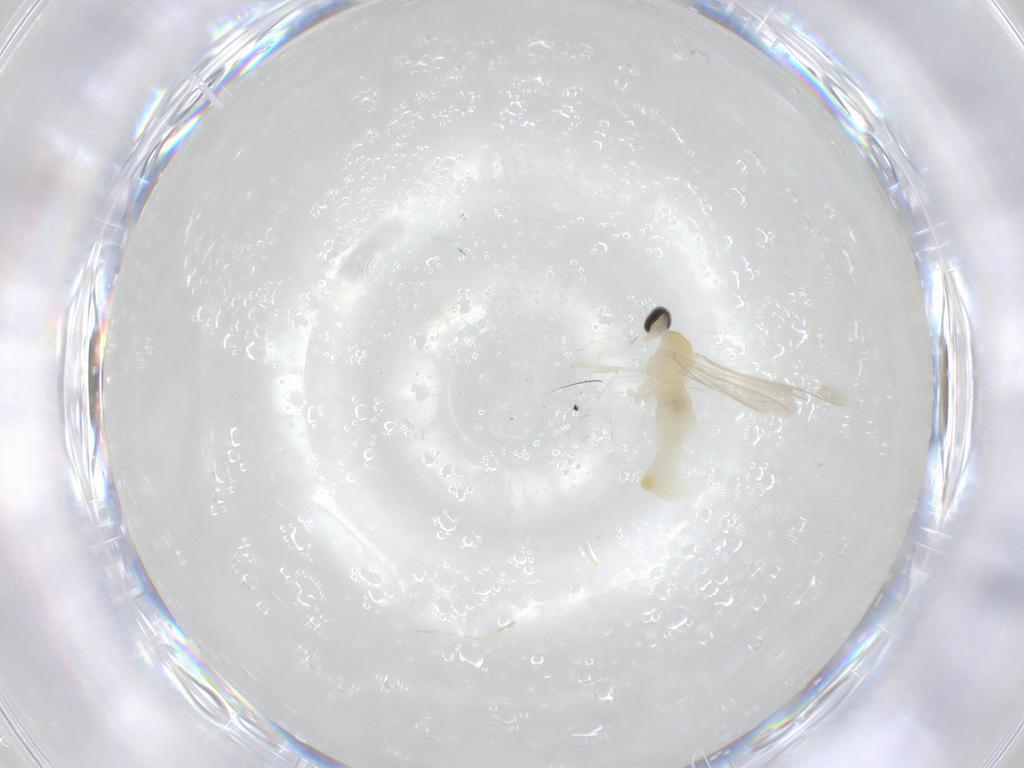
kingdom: Animalia
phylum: Arthropoda
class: Insecta
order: Diptera
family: Cecidomyiidae
